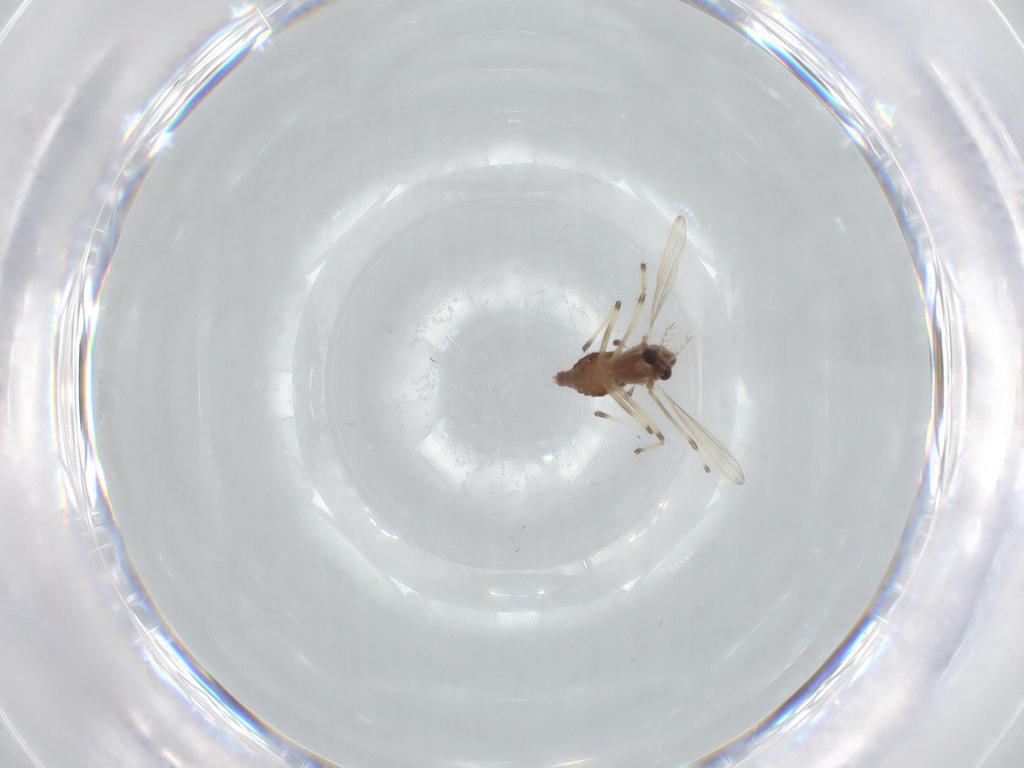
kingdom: Animalia
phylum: Arthropoda
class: Insecta
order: Diptera
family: Chironomidae
